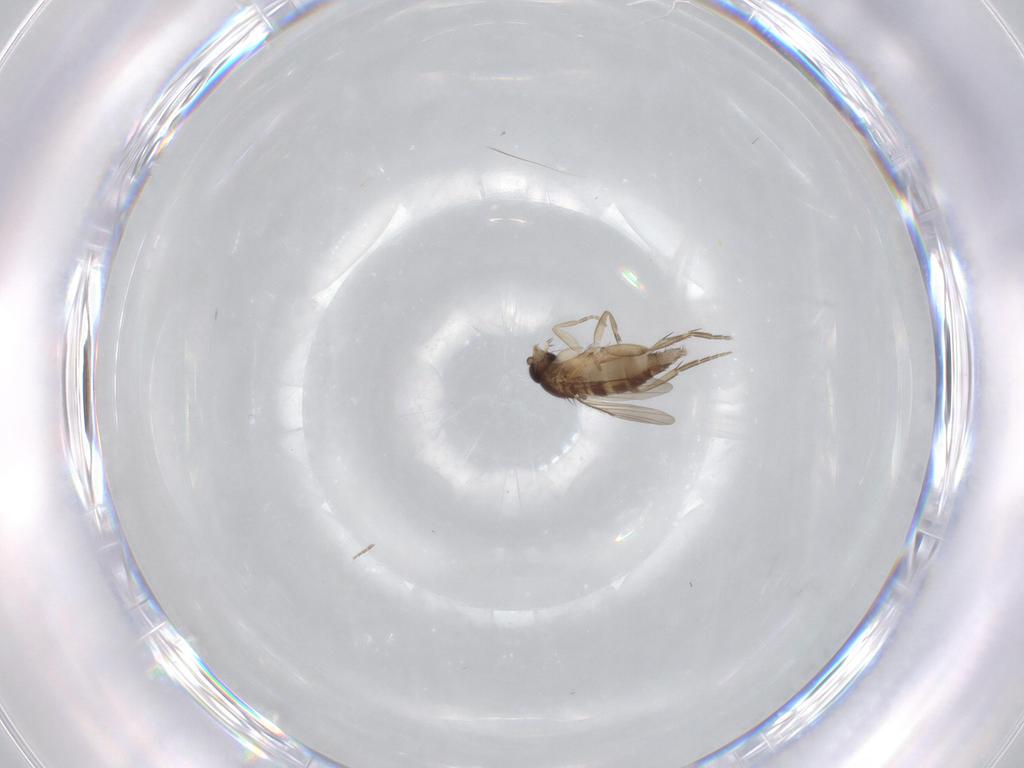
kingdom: Animalia
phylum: Arthropoda
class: Insecta
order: Diptera
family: Phoridae
